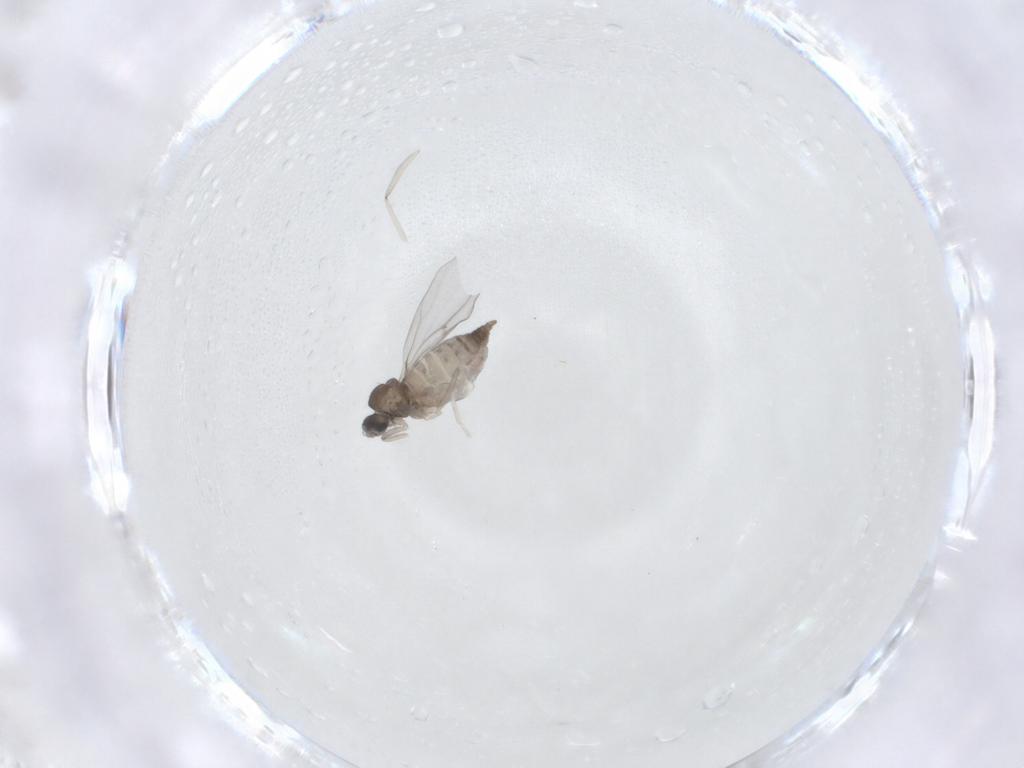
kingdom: Animalia
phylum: Arthropoda
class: Insecta
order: Diptera
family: Cecidomyiidae
